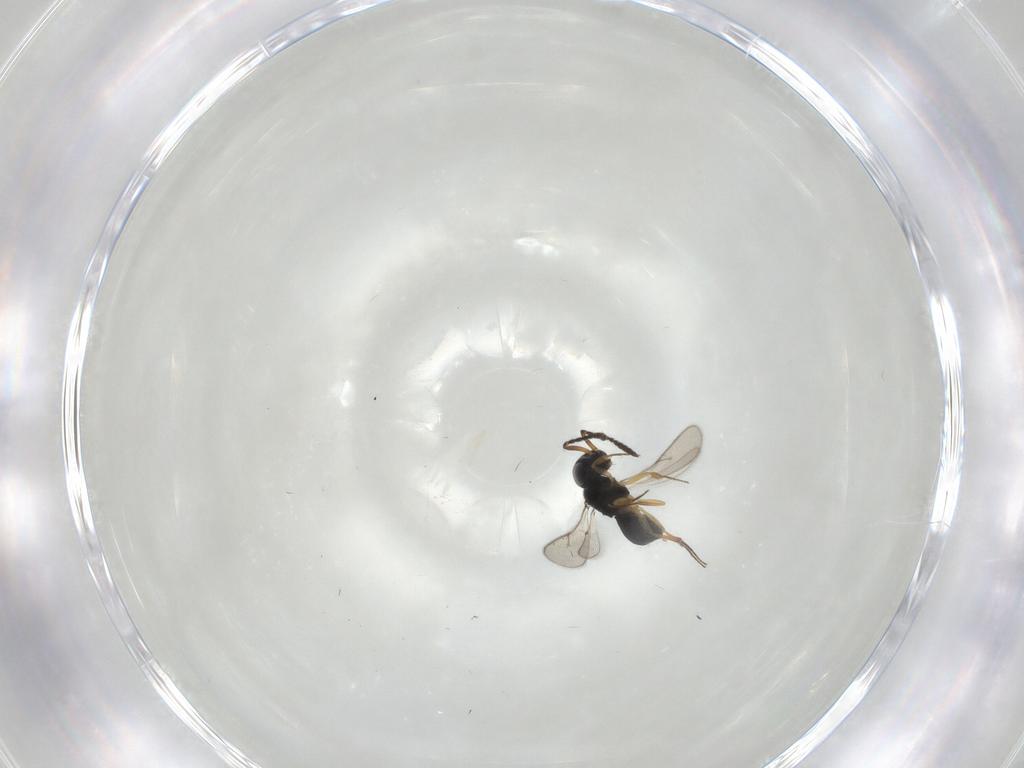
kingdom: Animalia
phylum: Arthropoda
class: Insecta
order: Hymenoptera
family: Scelionidae
